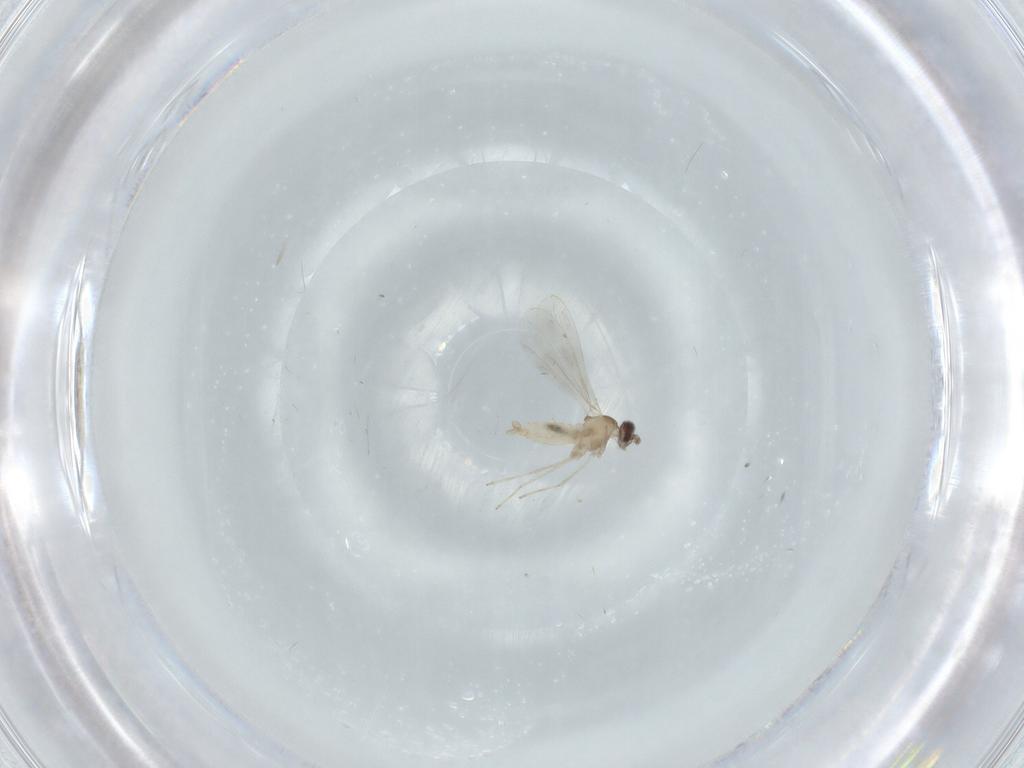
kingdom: Animalia
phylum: Arthropoda
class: Insecta
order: Diptera
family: Cecidomyiidae
